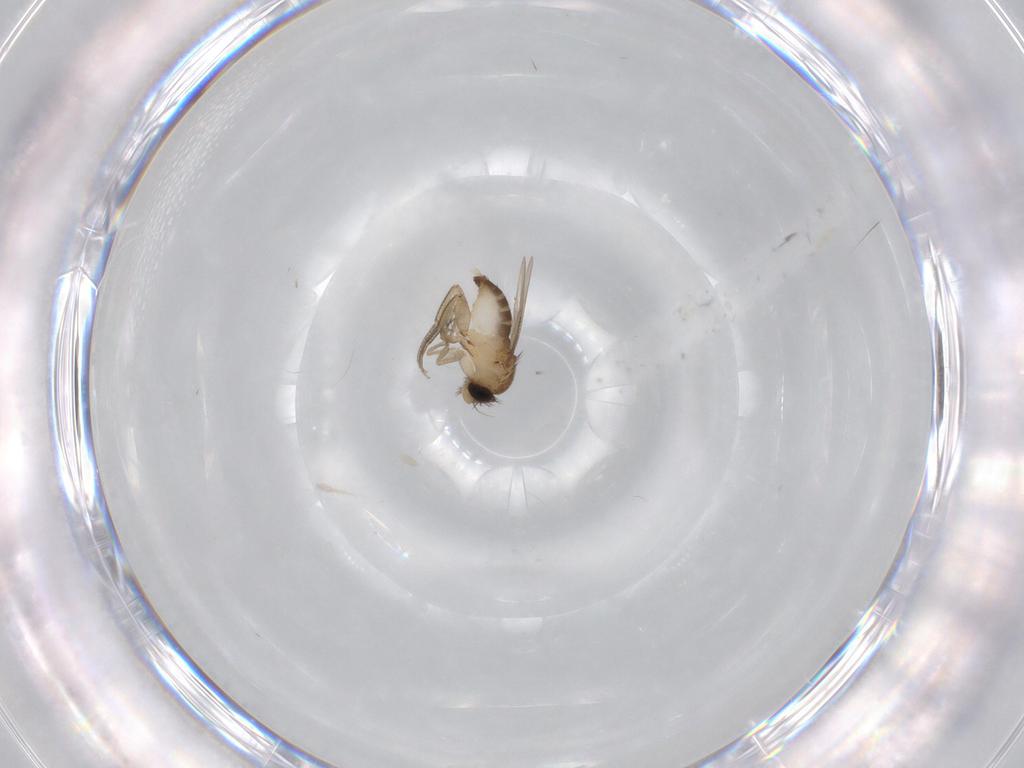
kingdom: Animalia
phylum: Arthropoda
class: Insecta
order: Diptera
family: Phoridae
